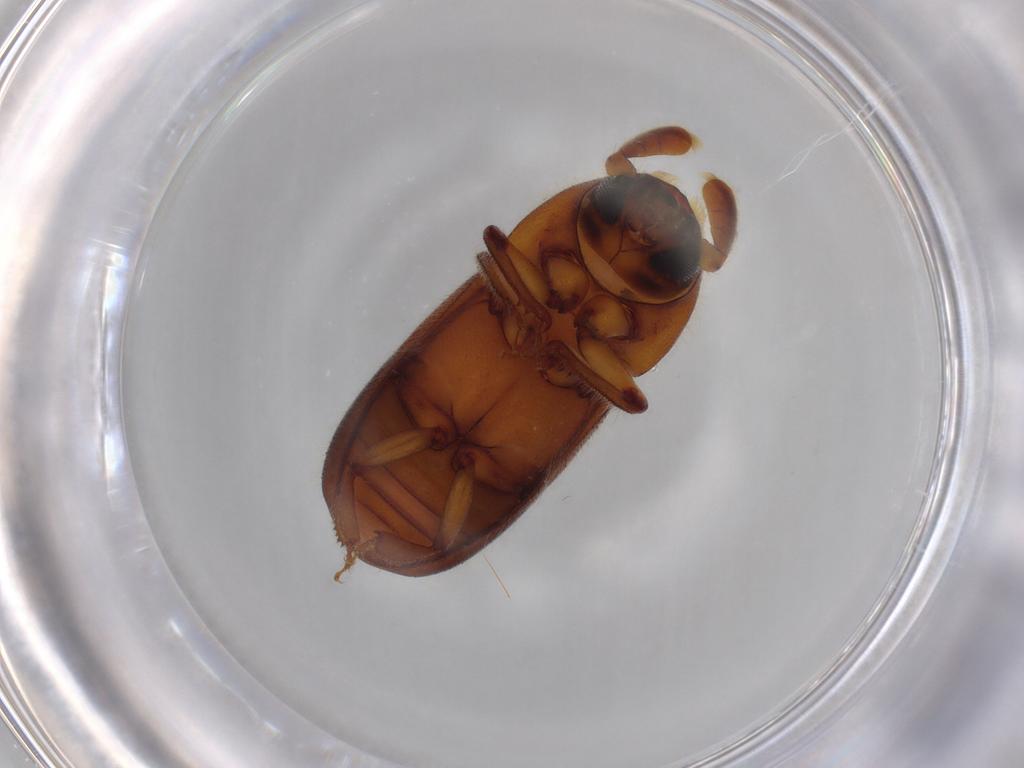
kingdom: Animalia
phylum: Arthropoda
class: Insecta
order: Coleoptera
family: Curculionidae
